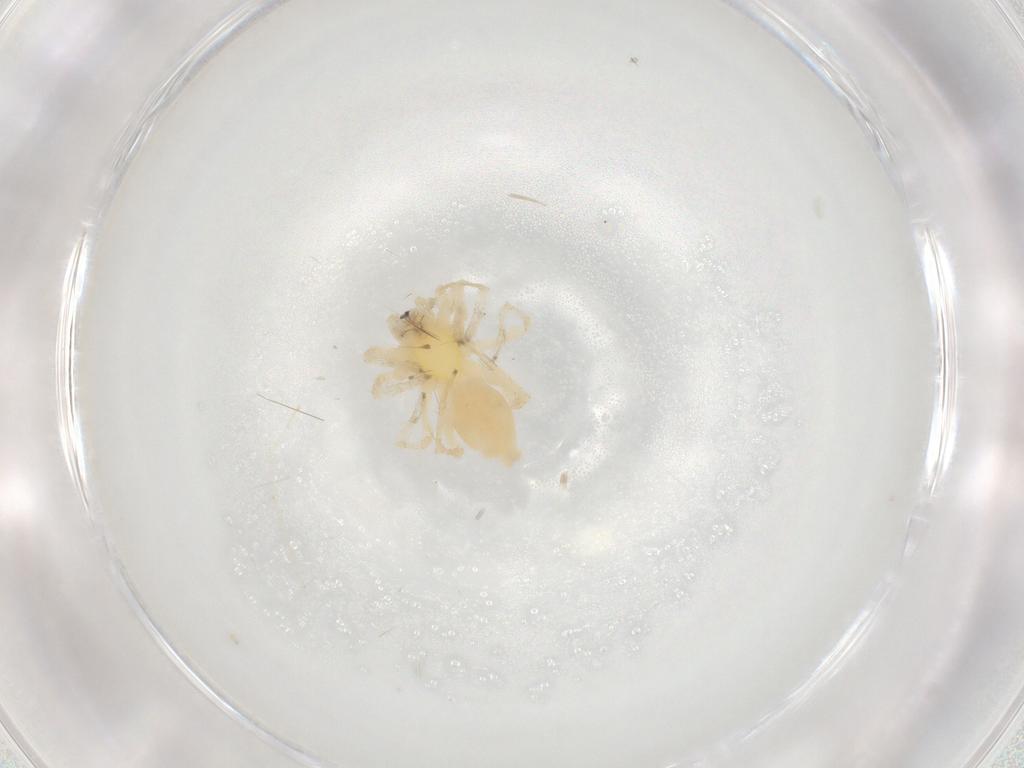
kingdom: Animalia
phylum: Arthropoda
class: Arachnida
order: Araneae
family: Clubionidae
